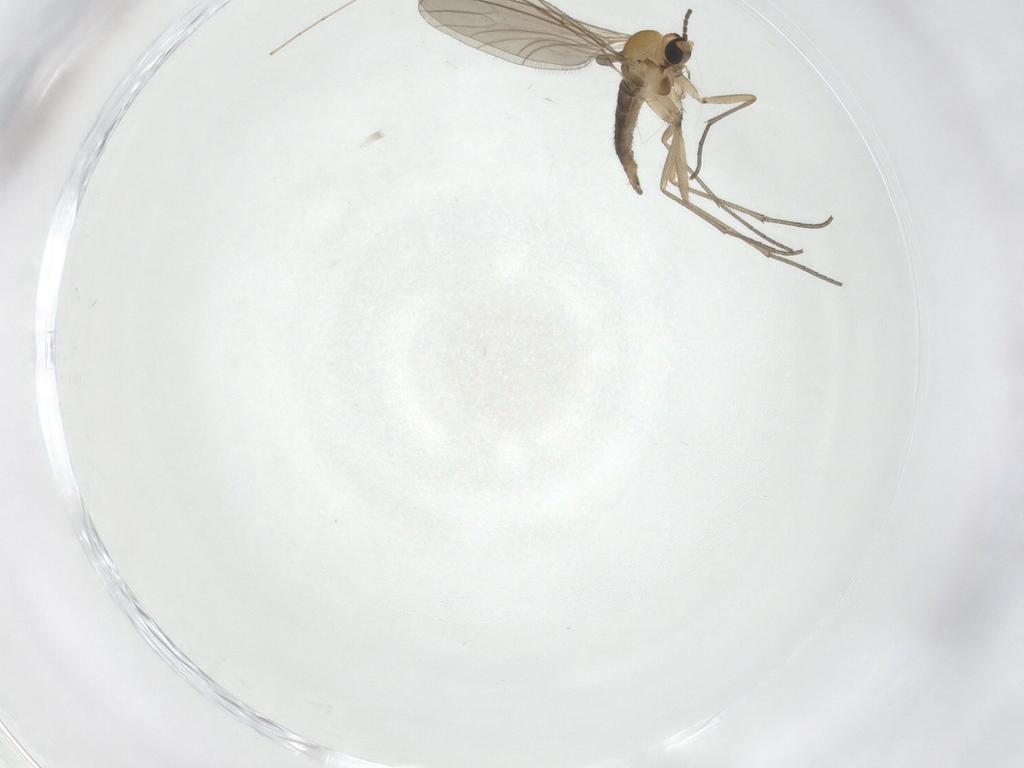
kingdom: Animalia
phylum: Arthropoda
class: Insecta
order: Diptera
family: Sciaridae
